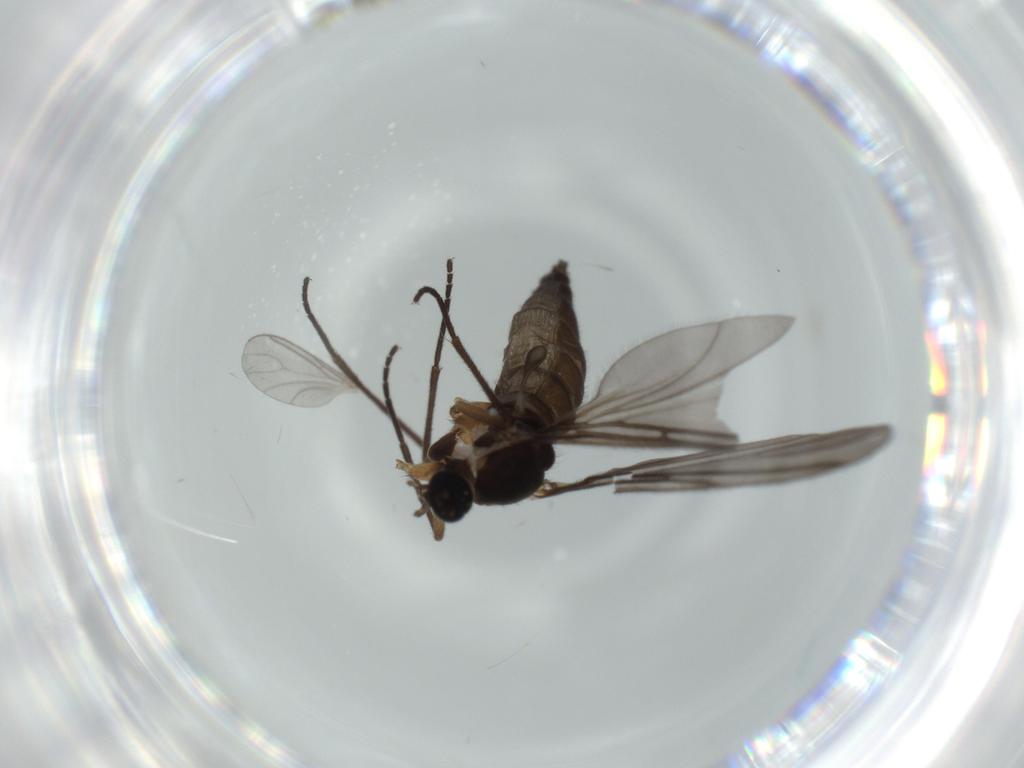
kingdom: Animalia
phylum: Arthropoda
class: Insecta
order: Diptera
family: Sciaridae
